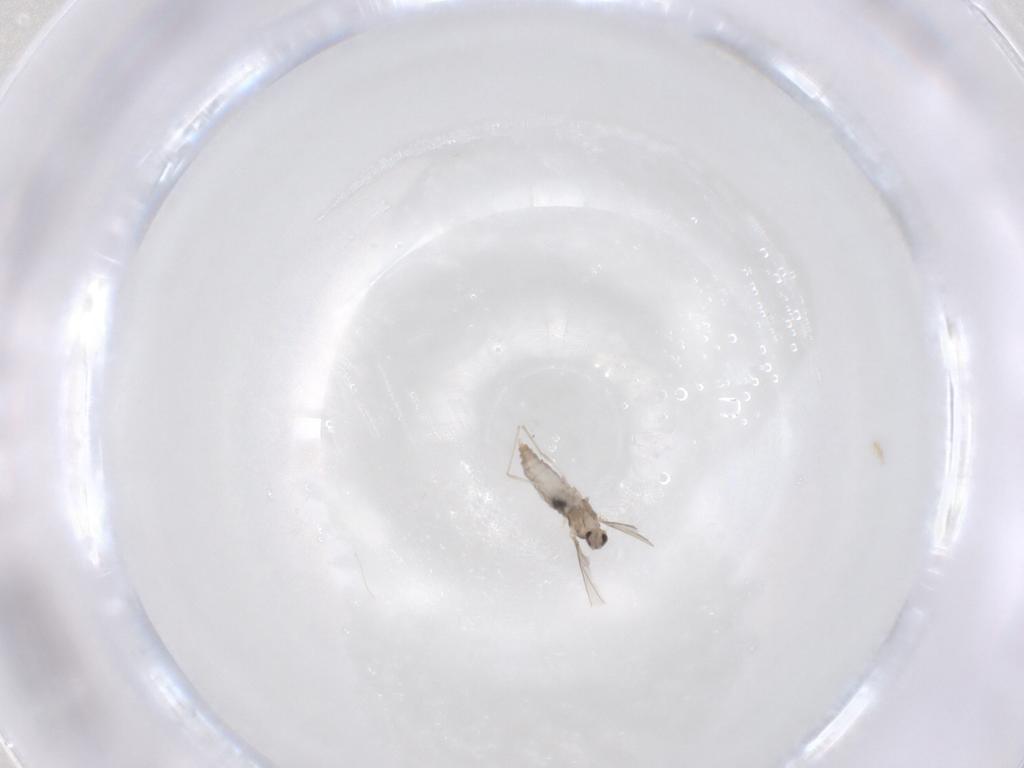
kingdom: Animalia
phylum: Arthropoda
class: Insecta
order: Diptera
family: Cecidomyiidae
